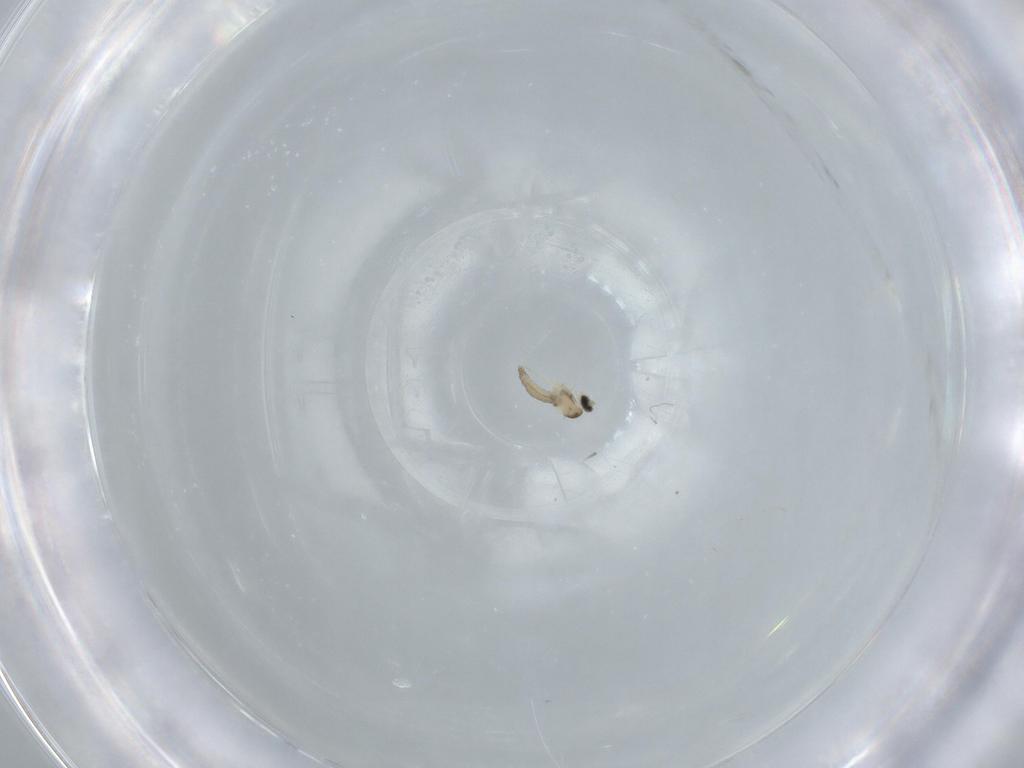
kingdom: Animalia
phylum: Arthropoda
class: Insecta
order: Diptera
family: Cecidomyiidae
